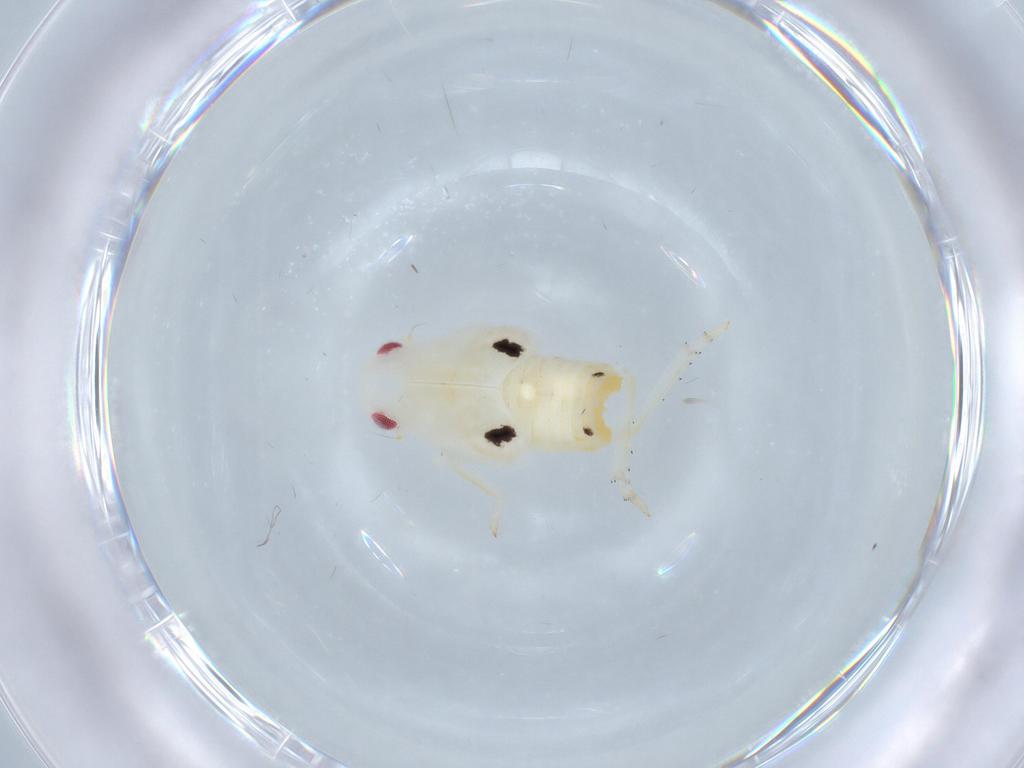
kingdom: Animalia
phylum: Arthropoda
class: Insecta
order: Hemiptera
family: Flatidae
